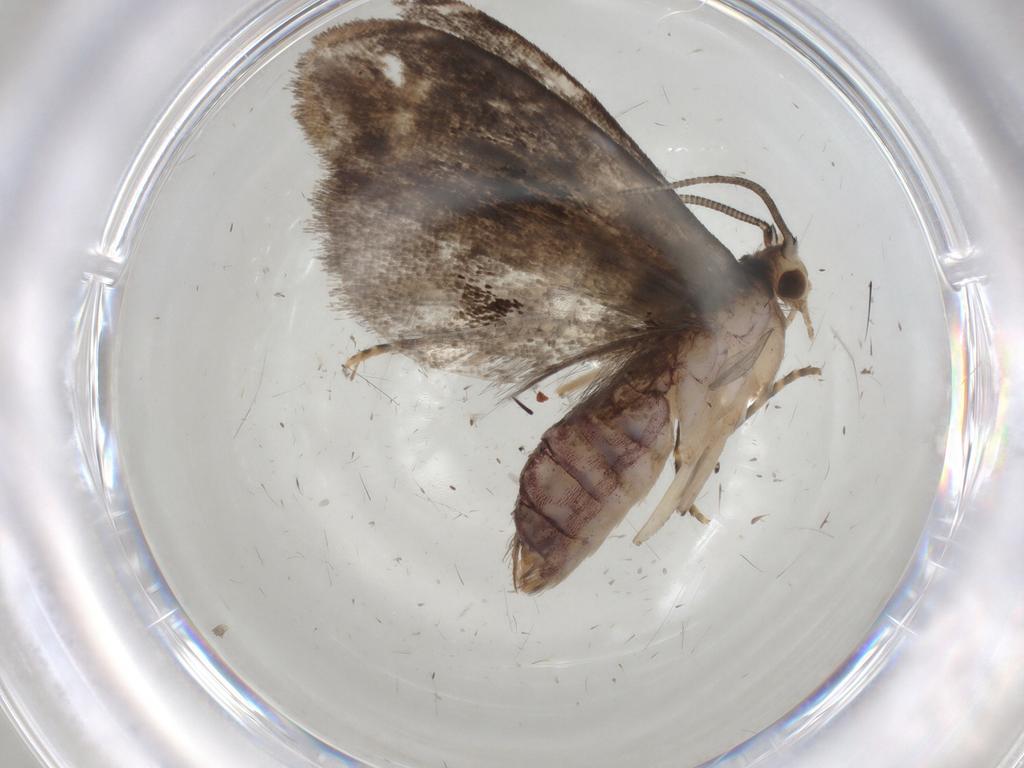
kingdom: Animalia
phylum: Arthropoda
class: Insecta
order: Lepidoptera
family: Dryadaulidae
